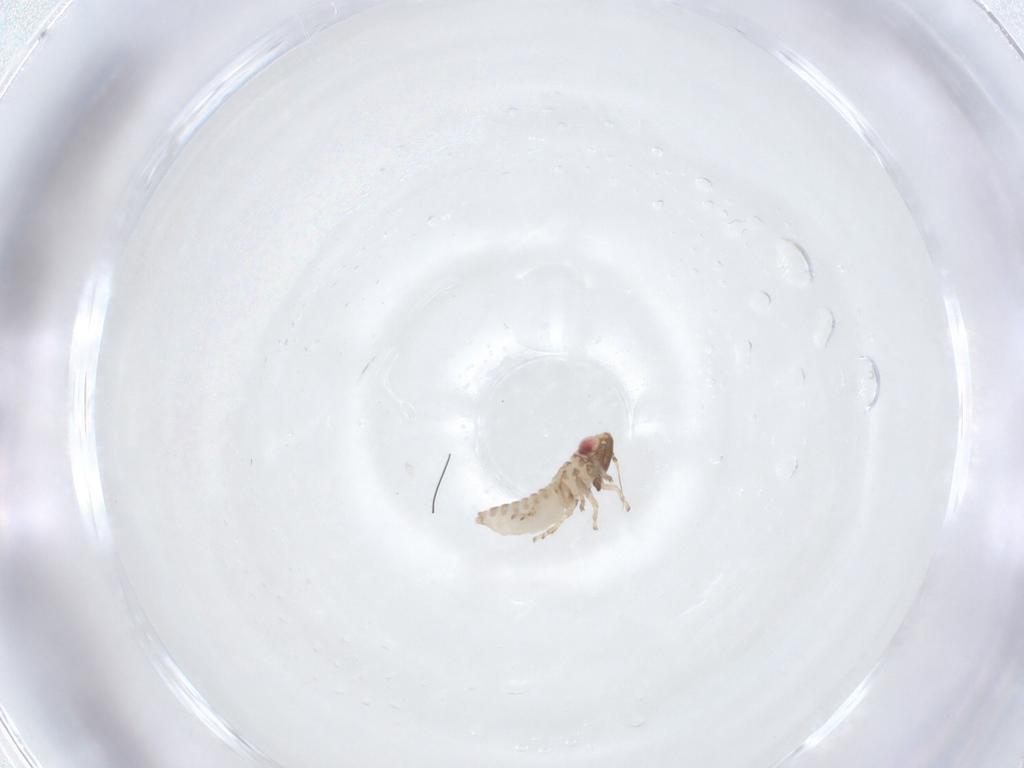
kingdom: Animalia
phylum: Arthropoda
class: Insecta
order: Hemiptera
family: Cicadellidae
